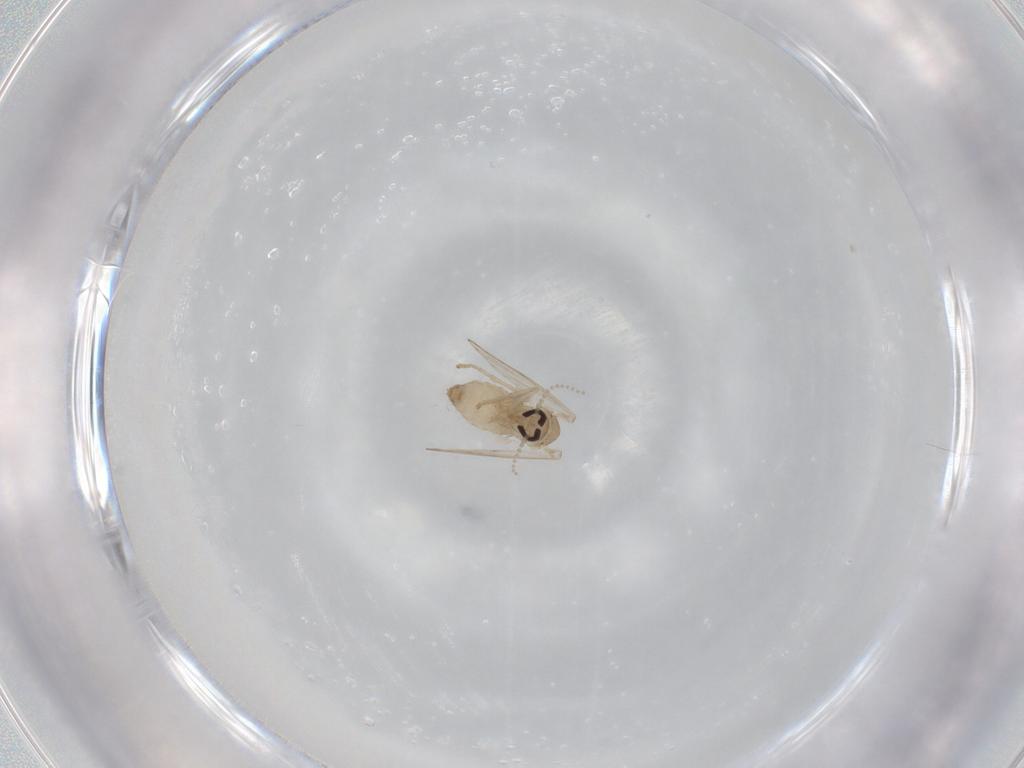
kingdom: Animalia
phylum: Arthropoda
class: Insecta
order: Diptera
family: Psychodidae
